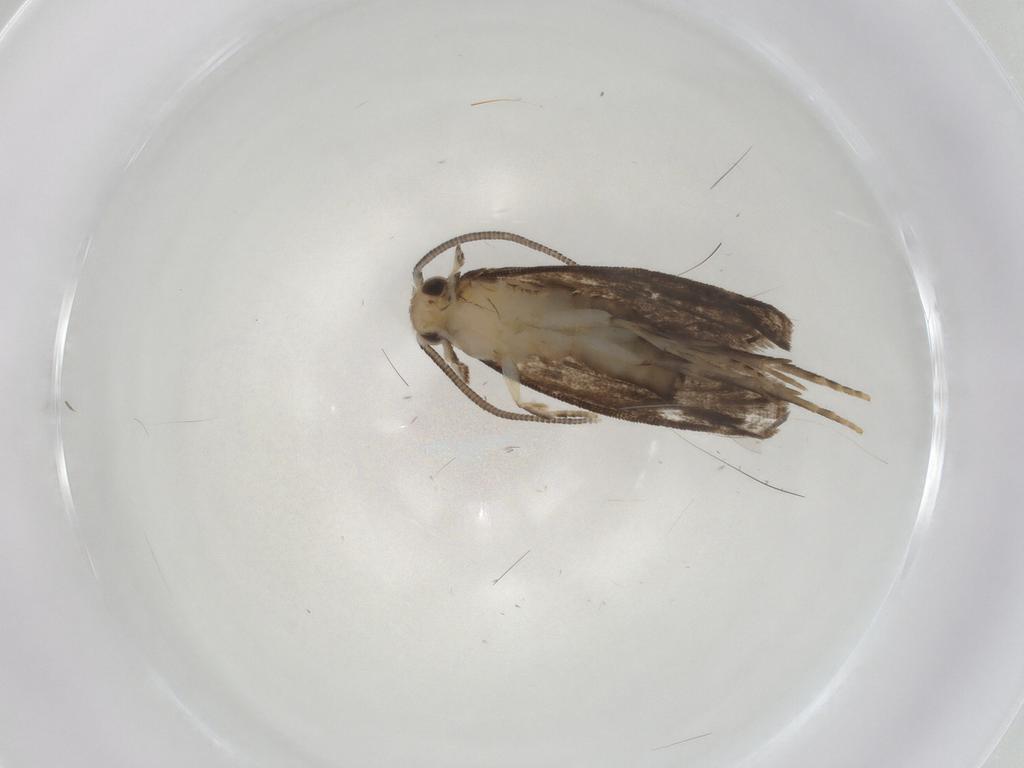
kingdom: Animalia
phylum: Arthropoda
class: Insecta
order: Lepidoptera
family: Dryadaulidae
